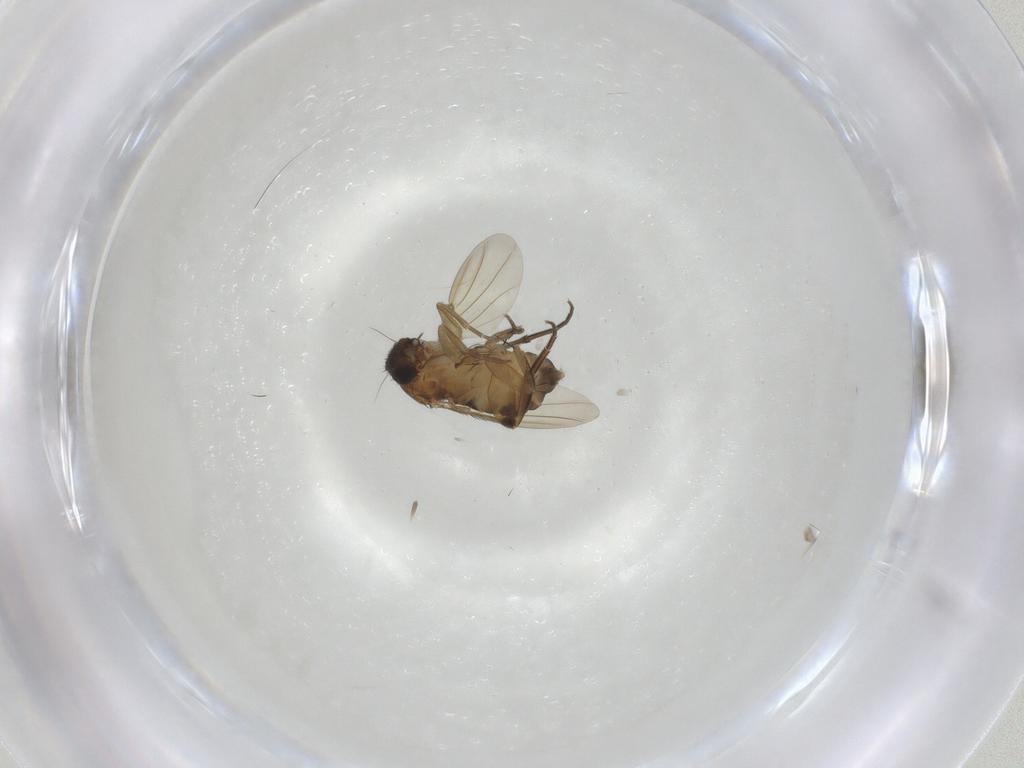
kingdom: Animalia
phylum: Arthropoda
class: Insecta
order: Diptera
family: Phoridae
